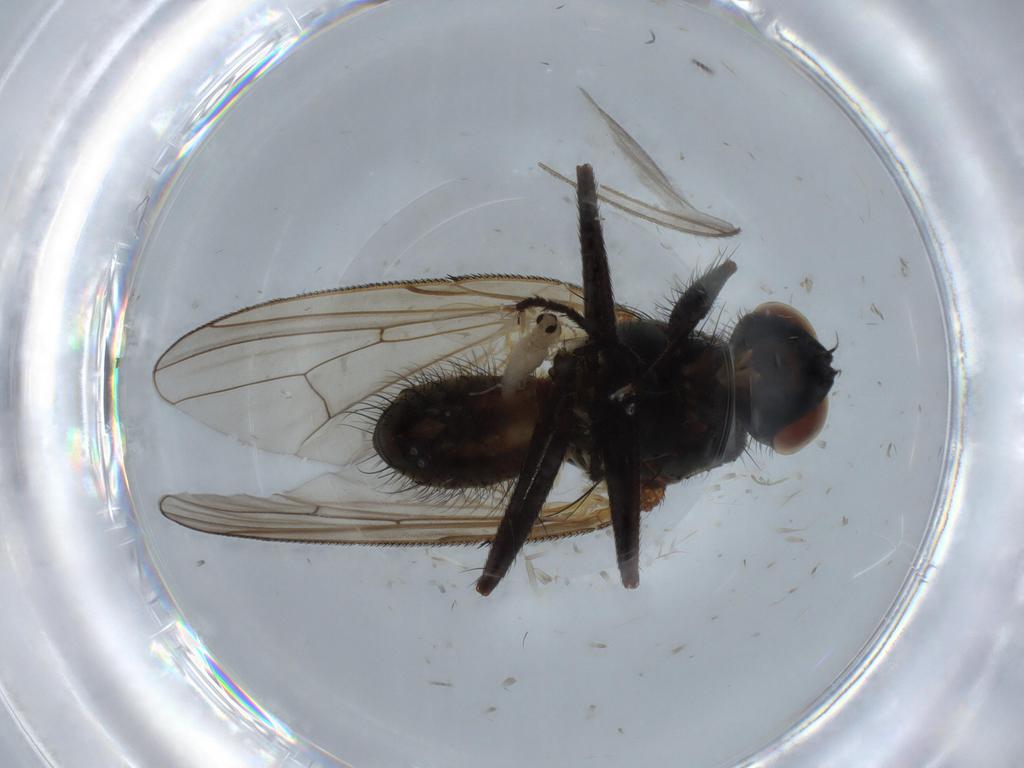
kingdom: Animalia
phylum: Arthropoda
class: Insecta
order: Diptera
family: Anthomyiidae
